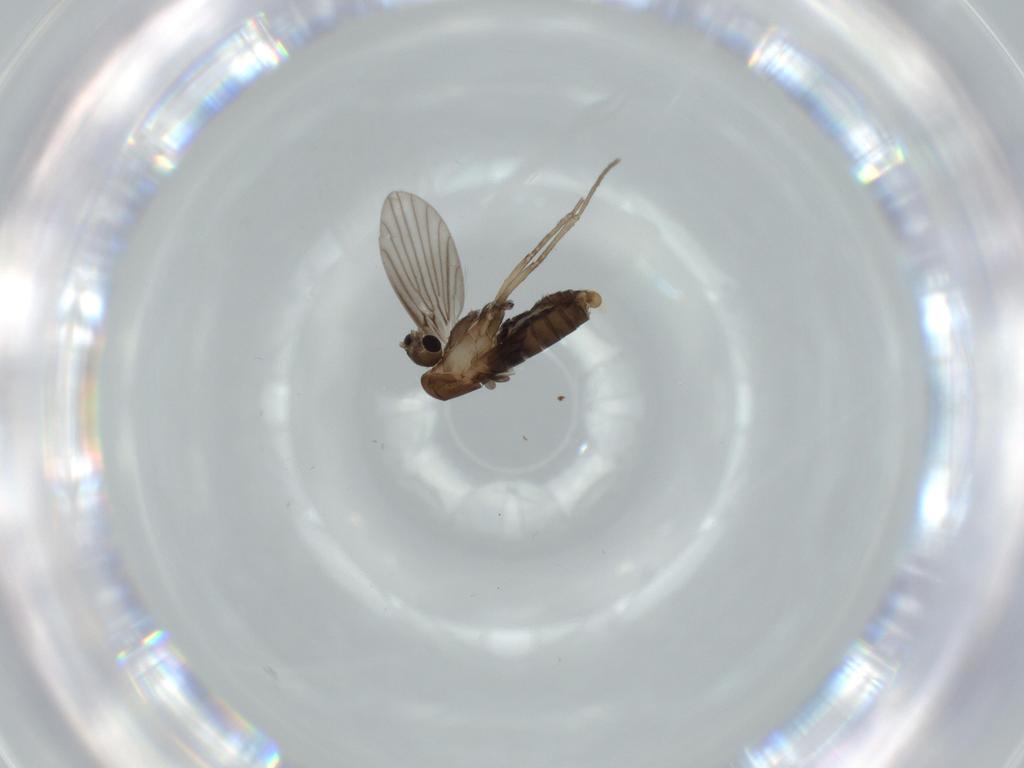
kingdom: Animalia
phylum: Arthropoda
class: Insecta
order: Diptera
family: Psychodidae
